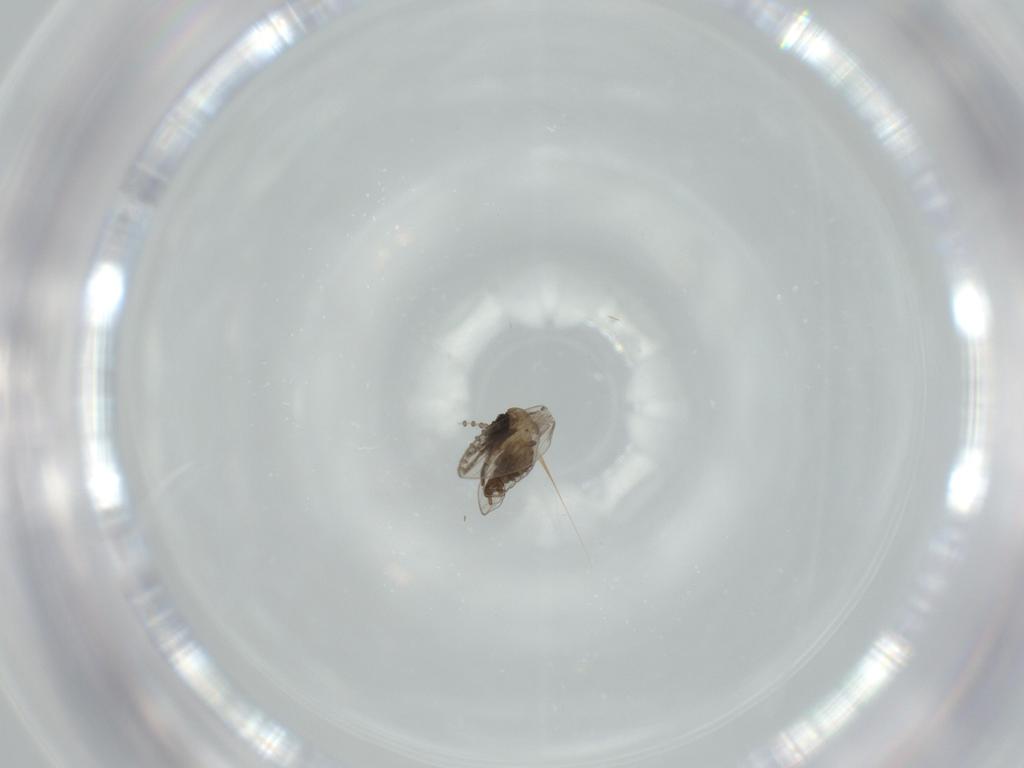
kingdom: Animalia
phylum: Arthropoda
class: Insecta
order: Diptera
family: Psychodidae
